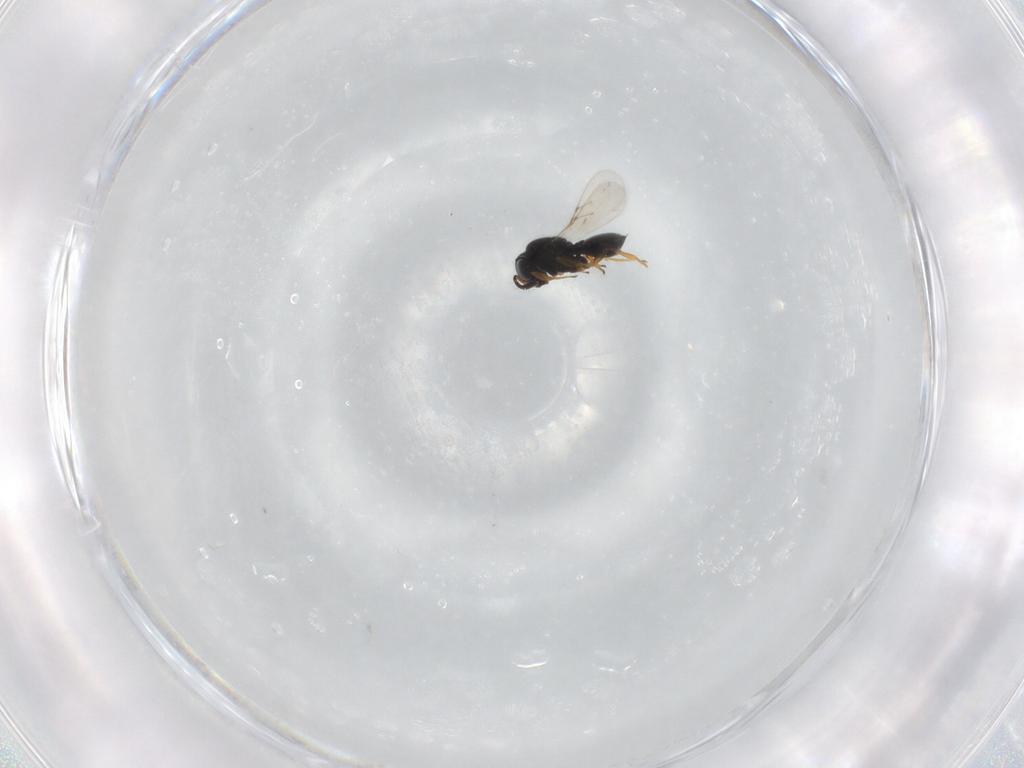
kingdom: Animalia
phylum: Arthropoda
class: Insecta
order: Hymenoptera
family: Scelionidae
